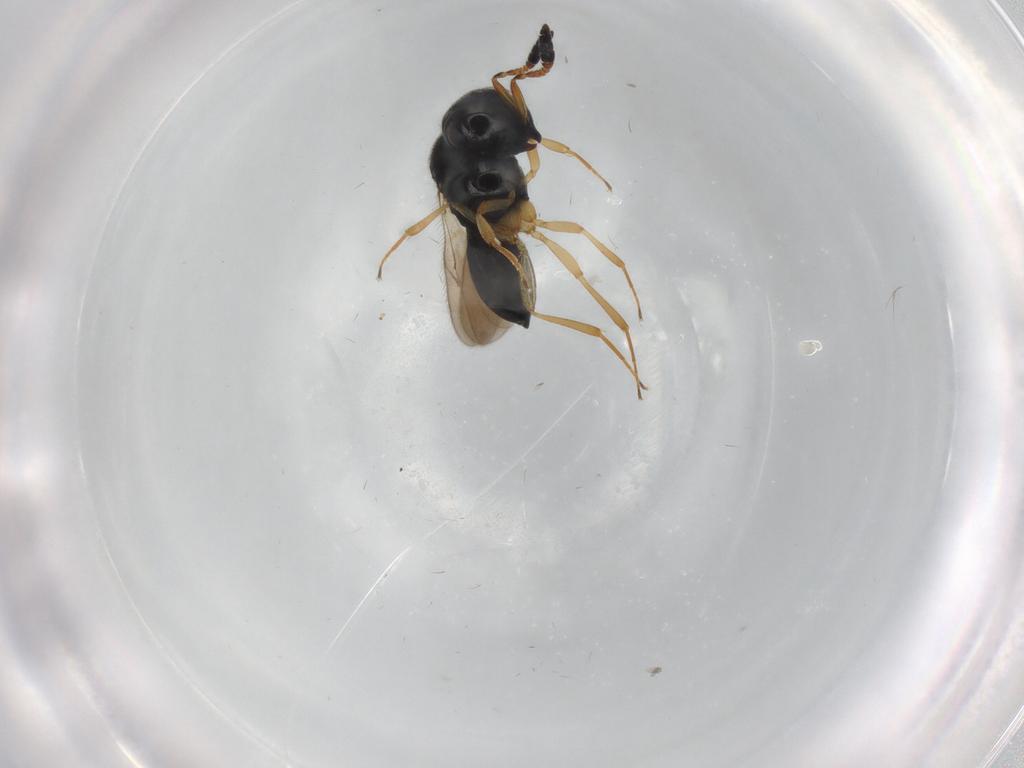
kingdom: Animalia
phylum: Arthropoda
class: Insecta
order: Hymenoptera
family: Scelionidae
